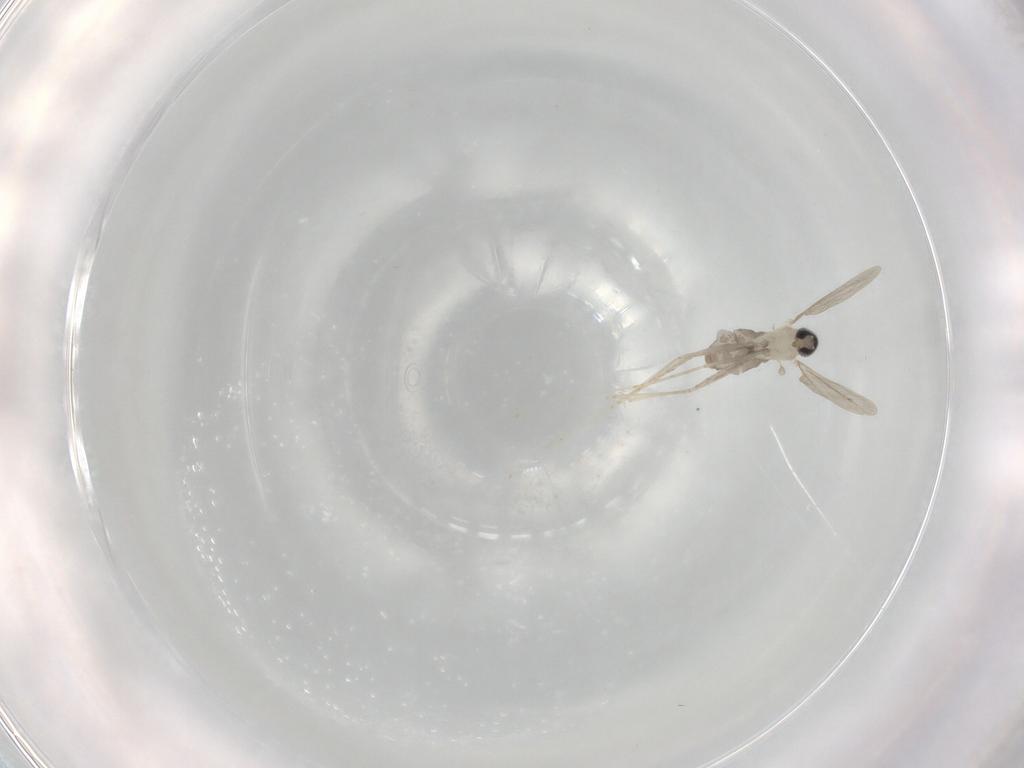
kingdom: Animalia
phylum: Arthropoda
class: Insecta
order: Diptera
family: Cecidomyiidae
